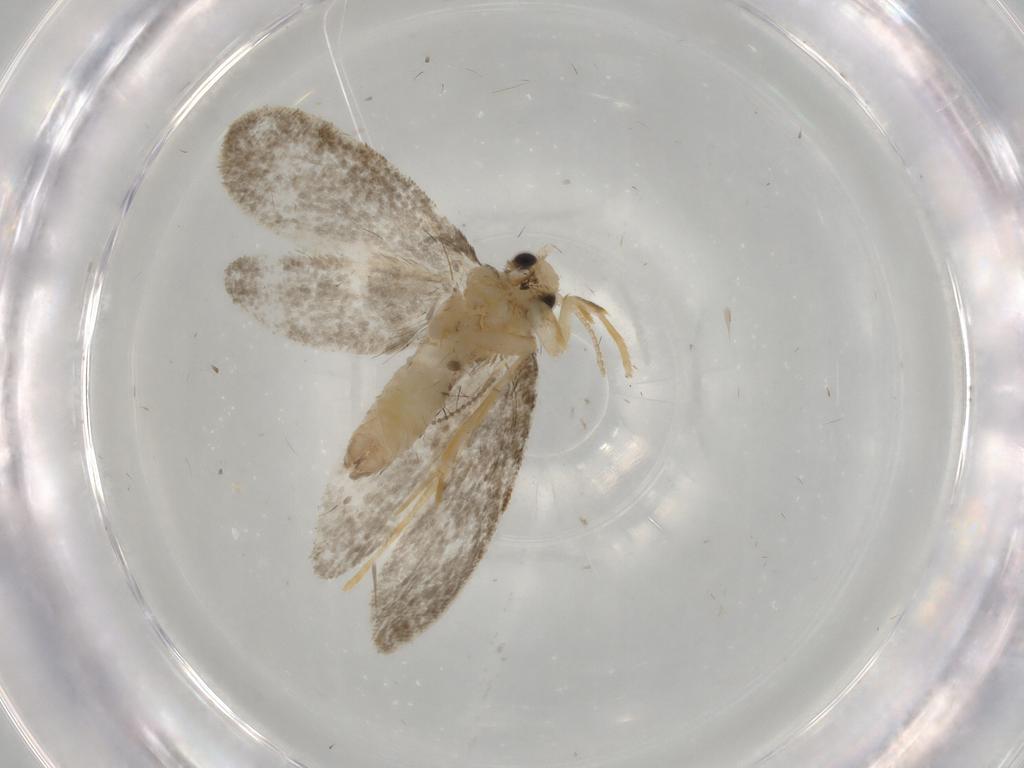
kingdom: Animalia
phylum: Arthropoda
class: Insecta
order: Lepidoptera
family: Psychidae
